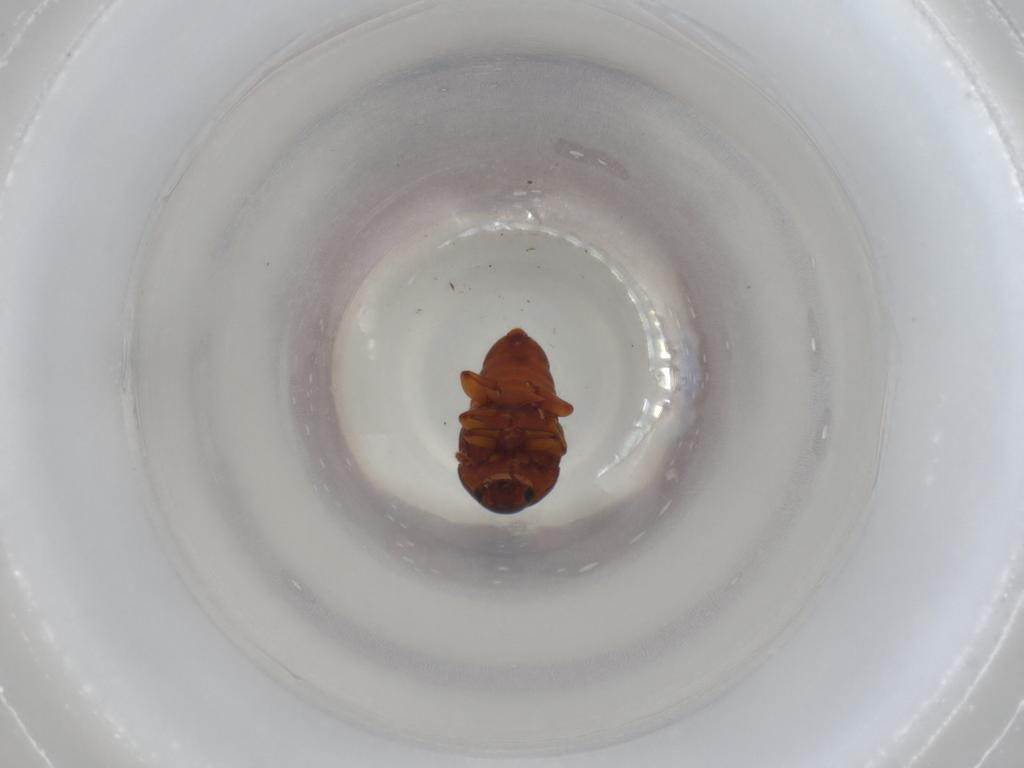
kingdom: Animalia
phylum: Arthropoda
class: Insecta
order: Coleoptera
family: Nitidulidae
